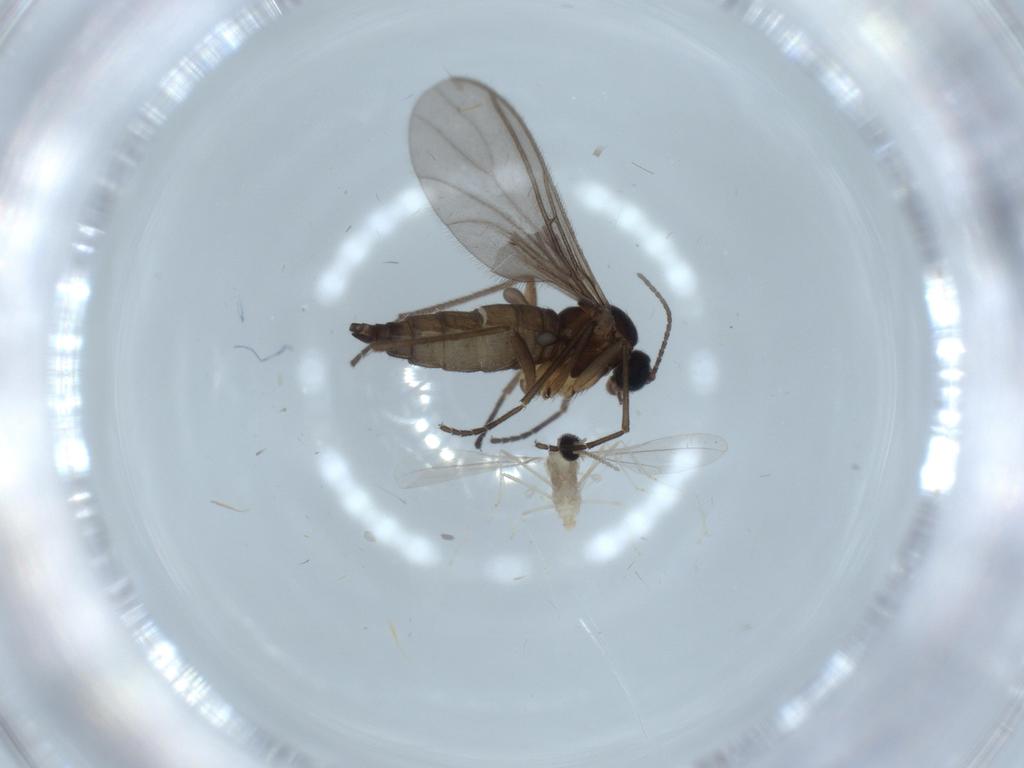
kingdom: Animalia
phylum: Arthropoda
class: Insecta
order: Diptera
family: Cecidomyiidae
